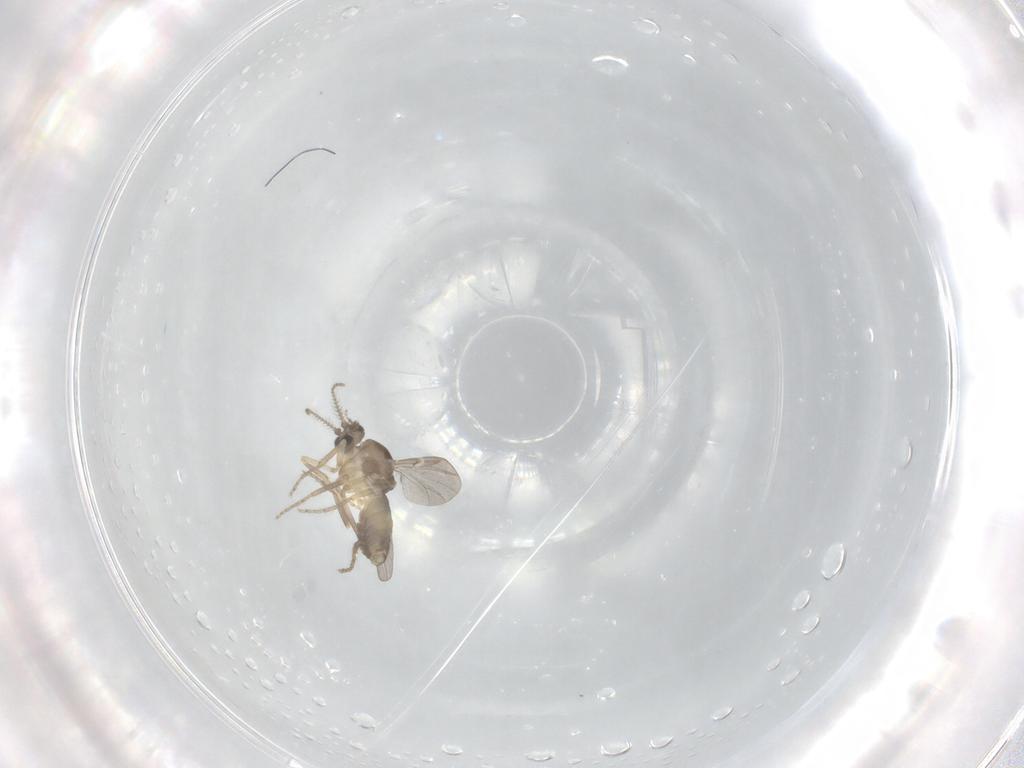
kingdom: Animalia
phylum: Arthropoda
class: Insecta
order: Diptera
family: Ceratopogonidae
